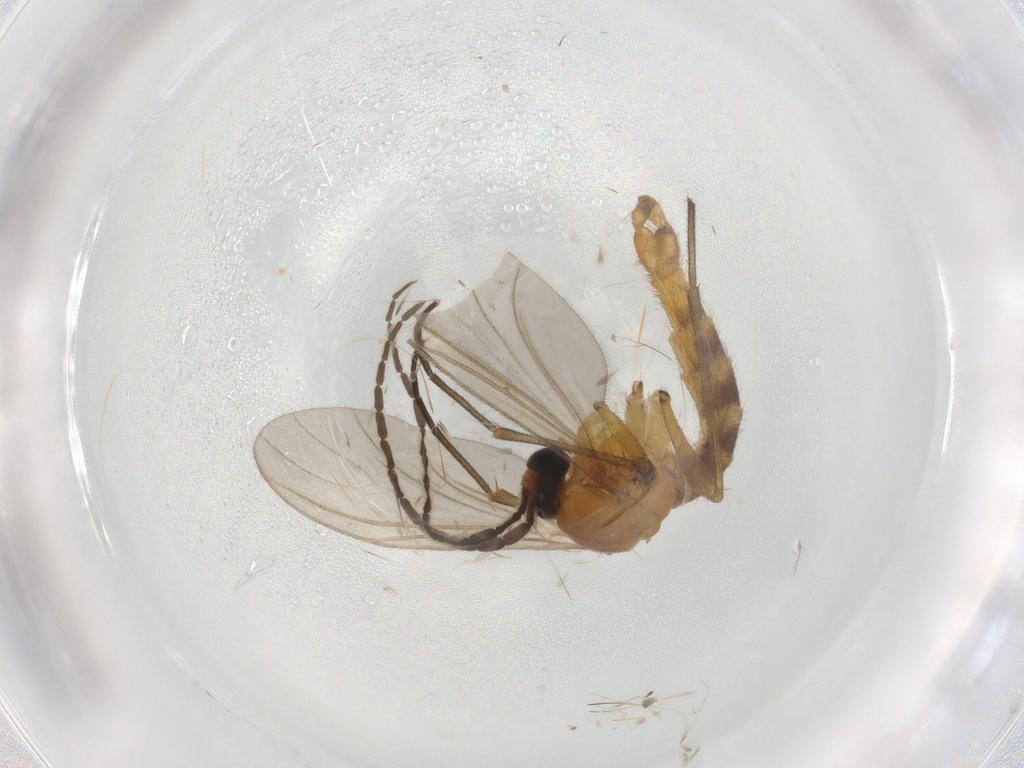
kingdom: Animalia
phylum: Arthropoda
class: Insecta
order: Diptera
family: Sciaridae
